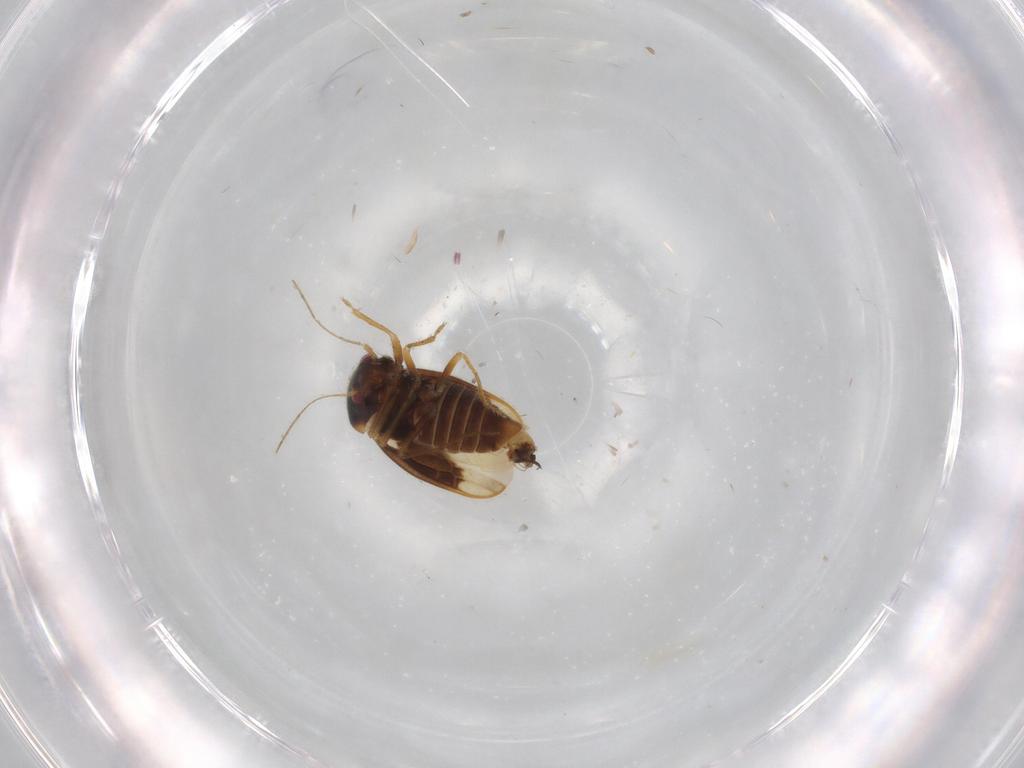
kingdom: Animalia
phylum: Arthropoda
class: Insecta
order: Hemiptera
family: Schizopteridae
